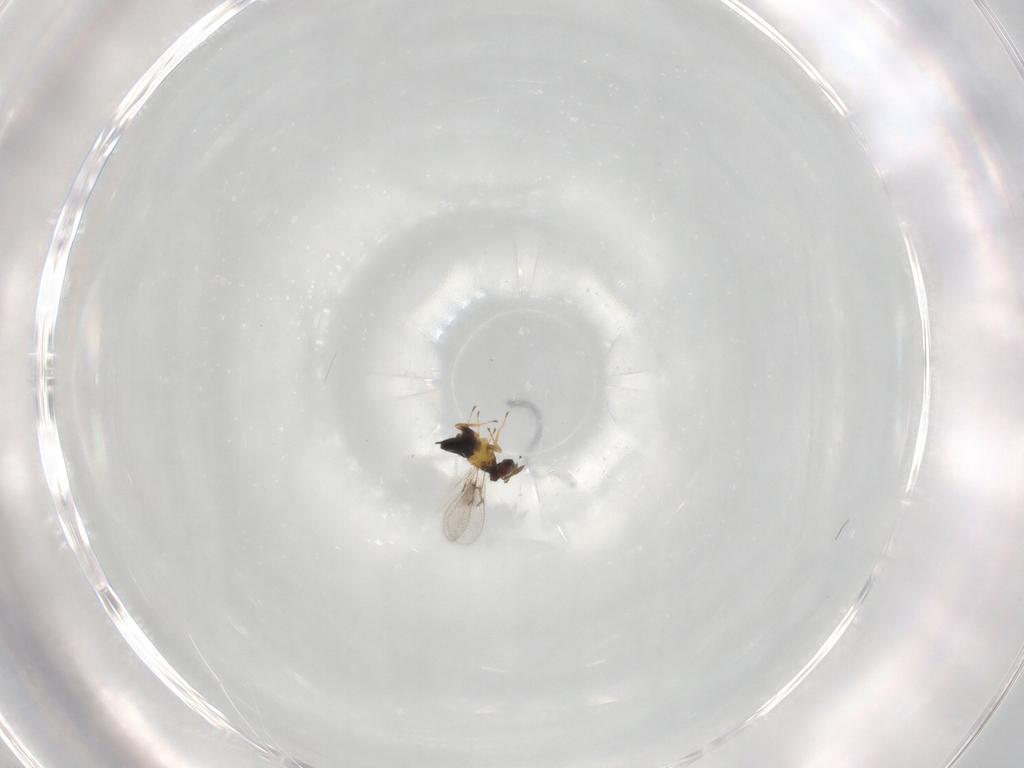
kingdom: Animalia
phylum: Arthropoda
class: Insecta
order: Hymenoptera
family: Trichogrammatidae
